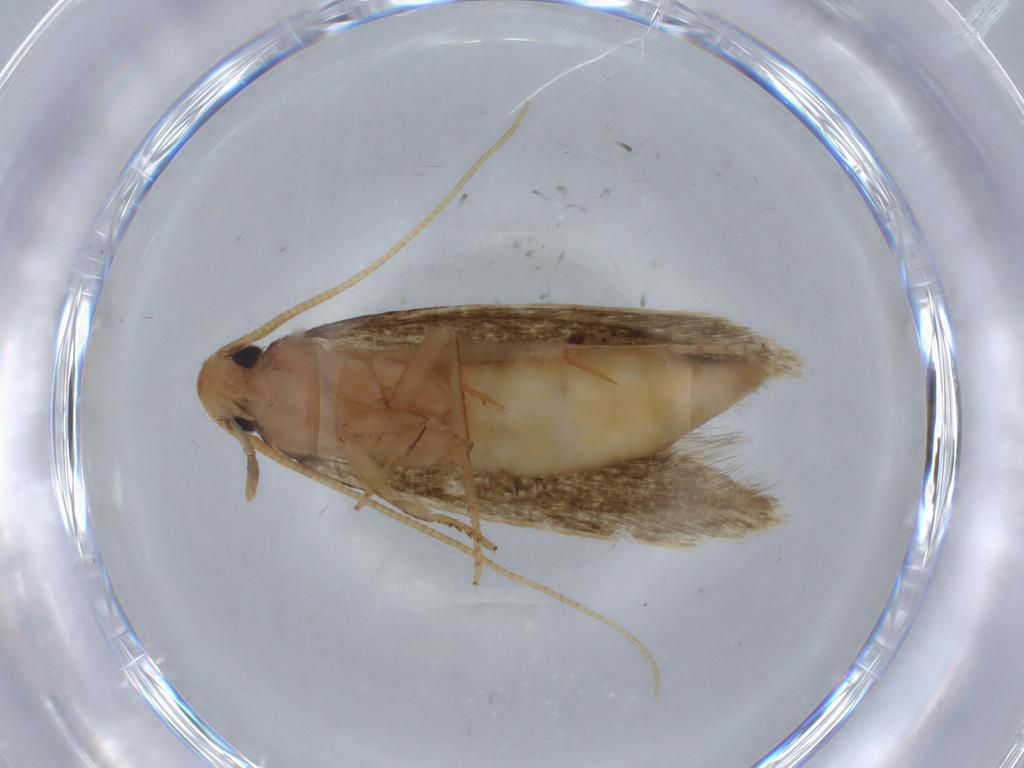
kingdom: Animalia
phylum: Arthropoda
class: Insecta
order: Lepidoptera
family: Tineidae
